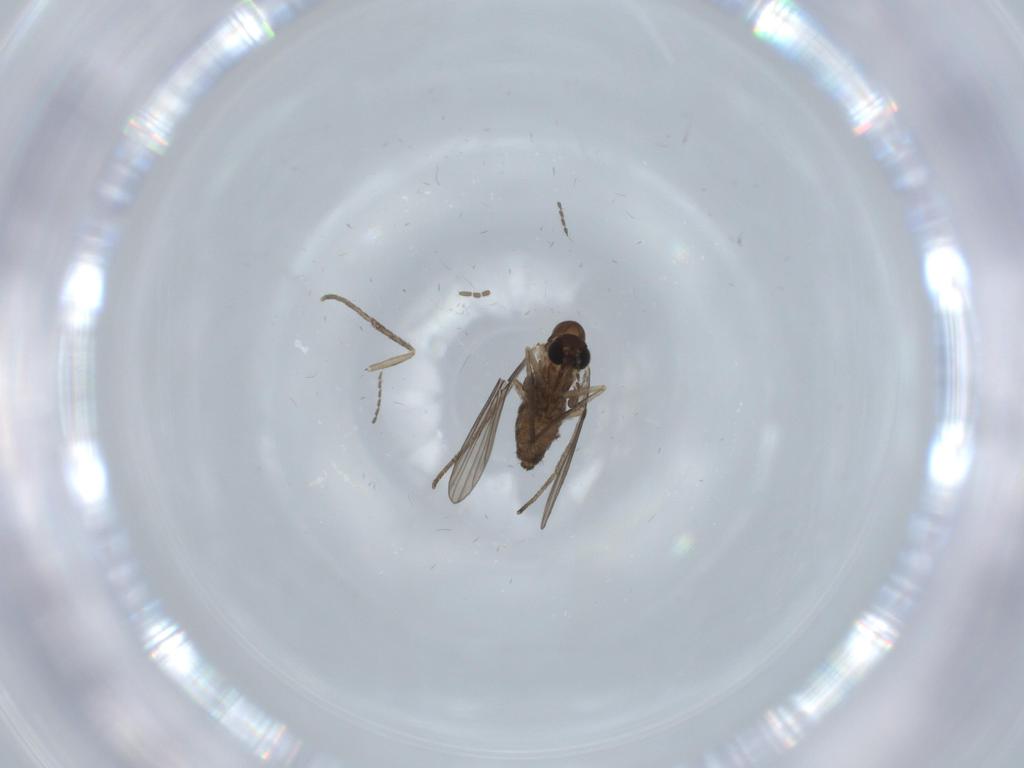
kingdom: Animalia
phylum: Arthropoda
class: Insecta
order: Diptera
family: Psychodidae
